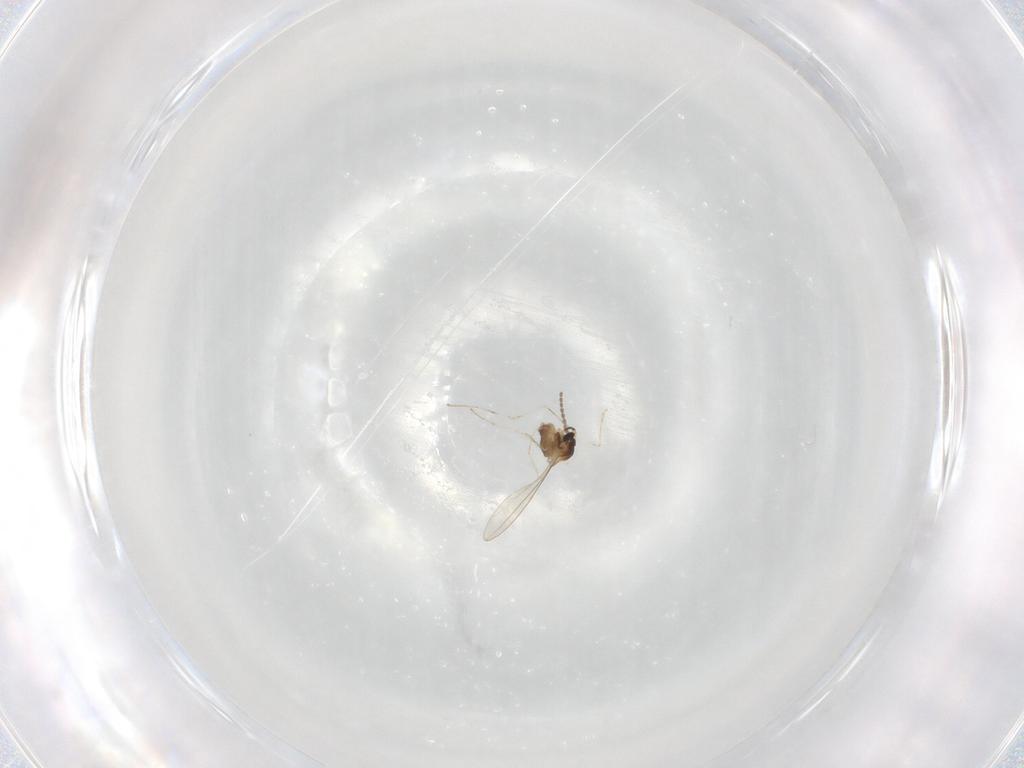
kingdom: Animalia
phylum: Arthropoda
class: Insecta
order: Diptera
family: Cecidomyiidae
